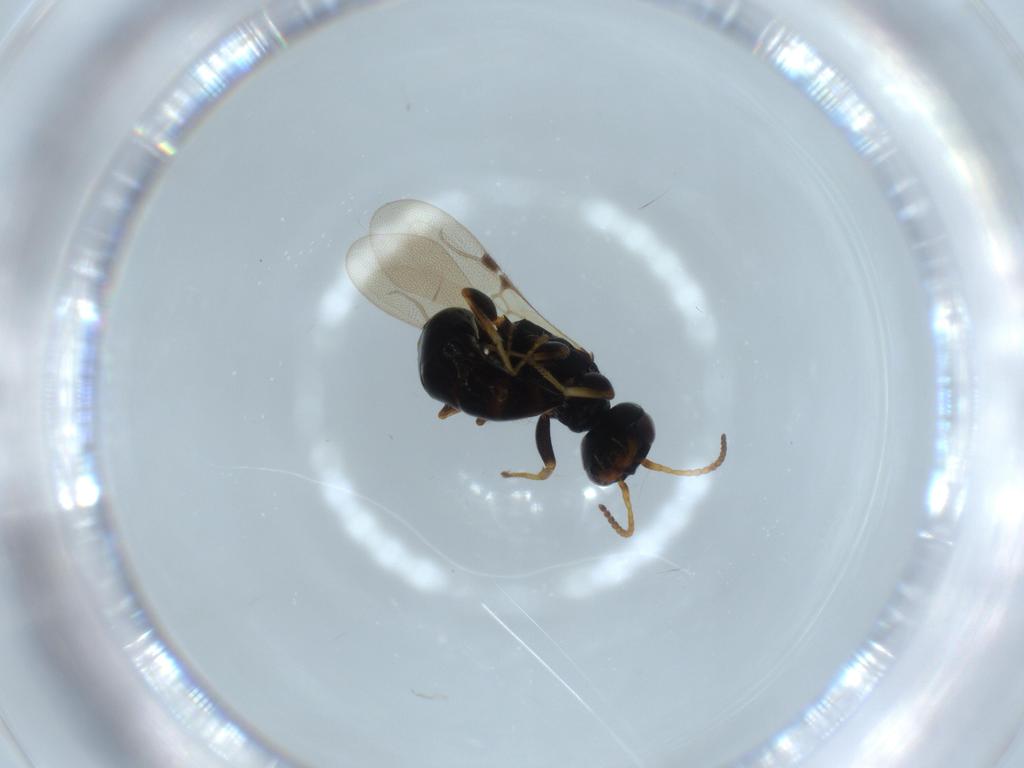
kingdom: Animalia
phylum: Arthropoda
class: Insecta
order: Hymenoptera
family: Bethylidae
